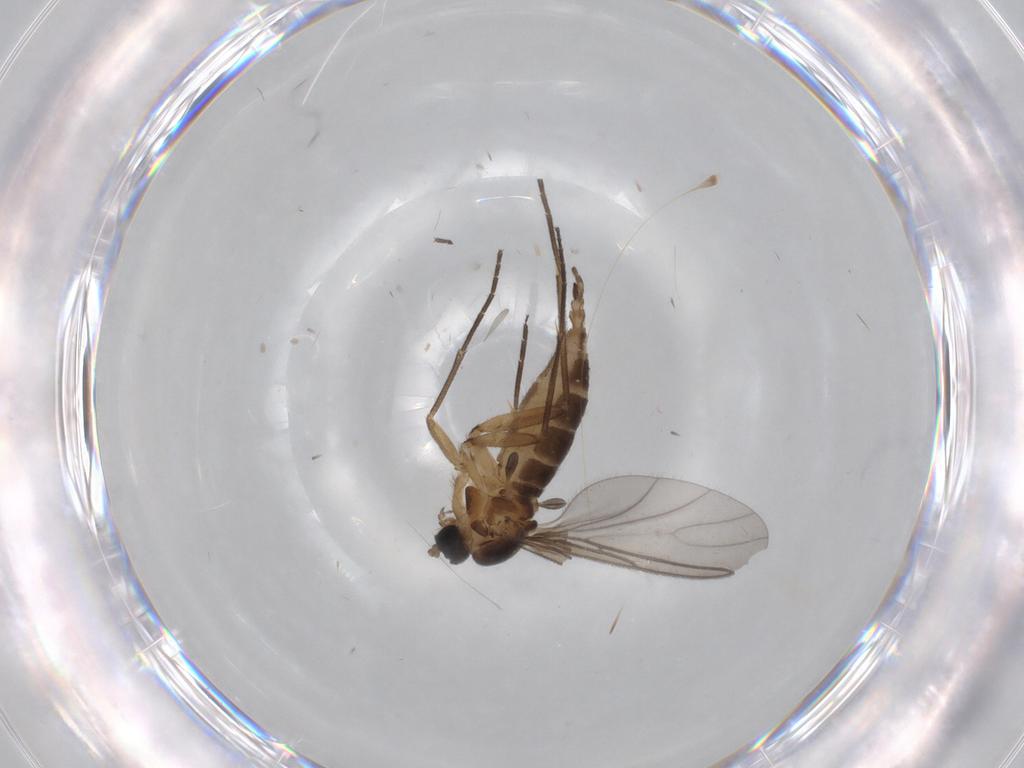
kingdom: Animalia
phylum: Arthropoda
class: Insecta
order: Diptera
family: Sciaridae
